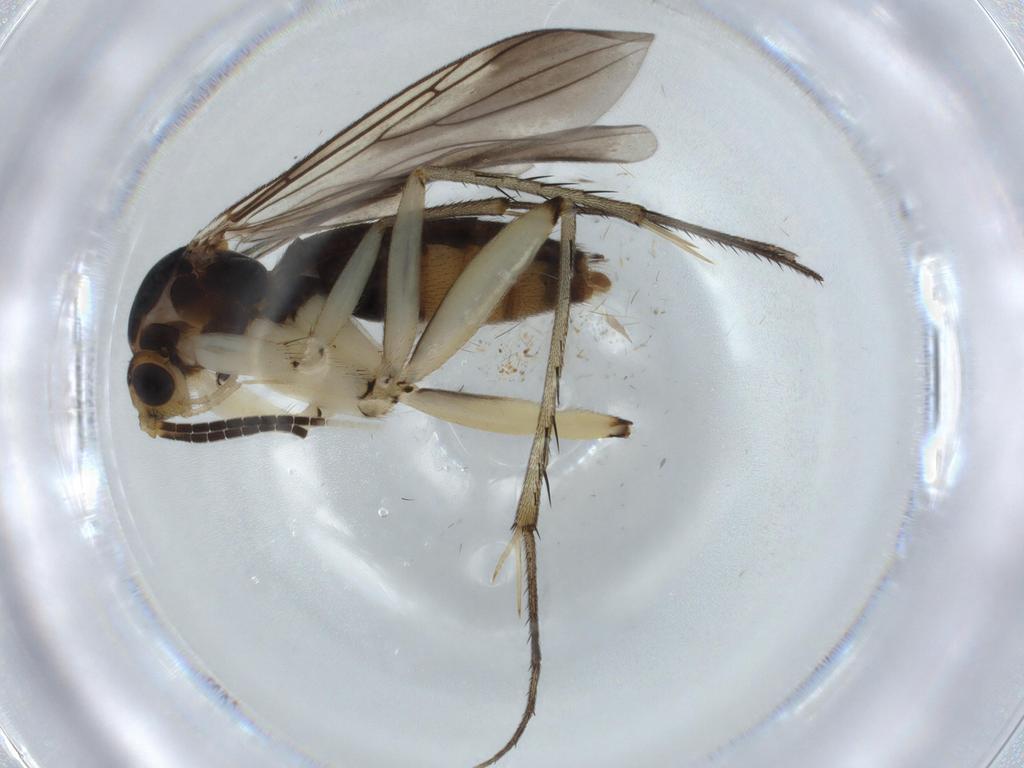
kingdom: Animalia
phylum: Arthropoda
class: Insecta
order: Diptera
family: Mycetophilidae
